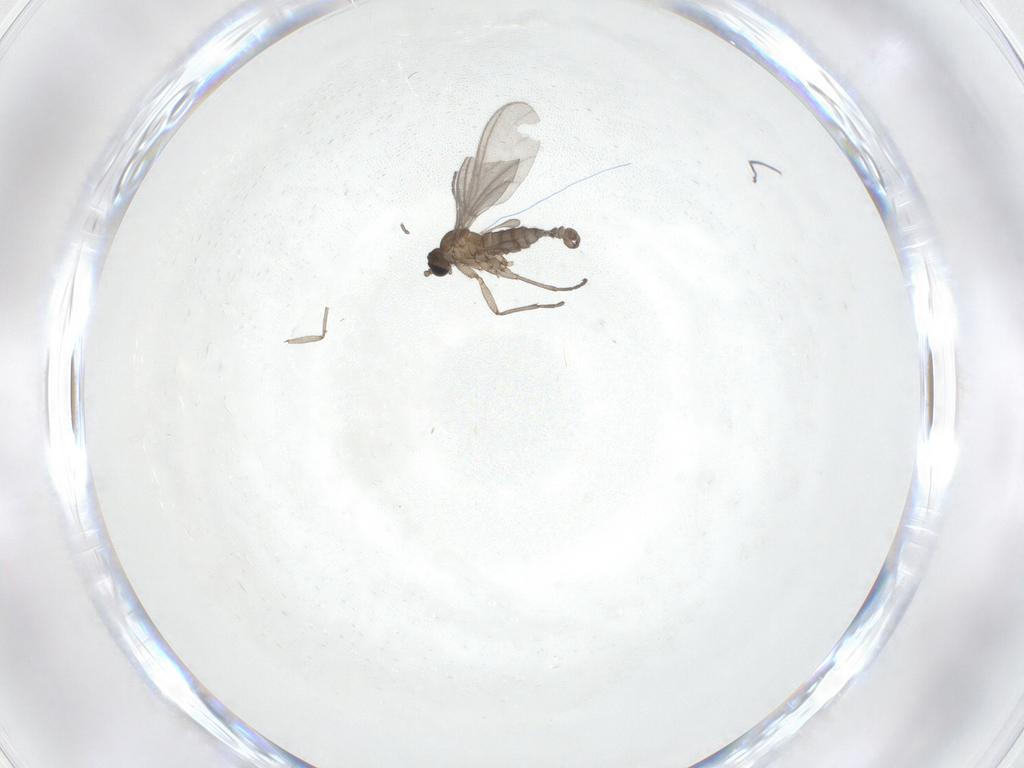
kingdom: Animalia
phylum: Arthropoda
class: Insecta
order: Diptera
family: Sciaridae
